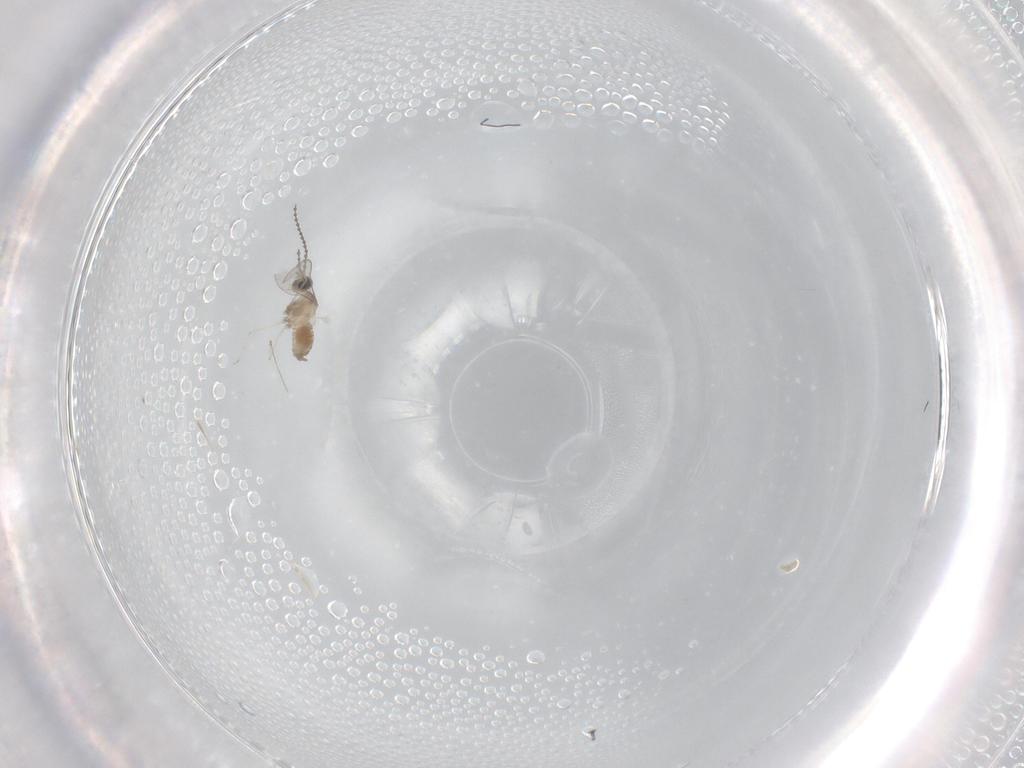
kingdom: Animalia
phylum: Arthropoda
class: Insecta
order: Diptera
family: Cecidomyiidae
